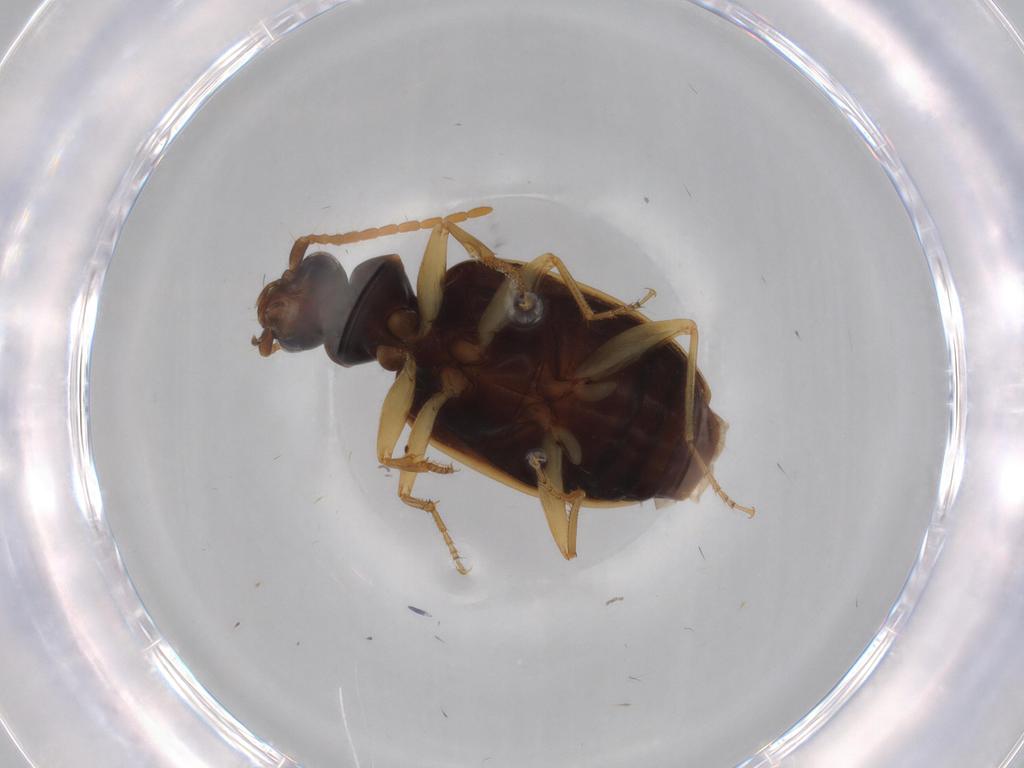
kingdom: Animalia
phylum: Arthropoda
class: Insecta
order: Coleoptera
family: Carabidae
